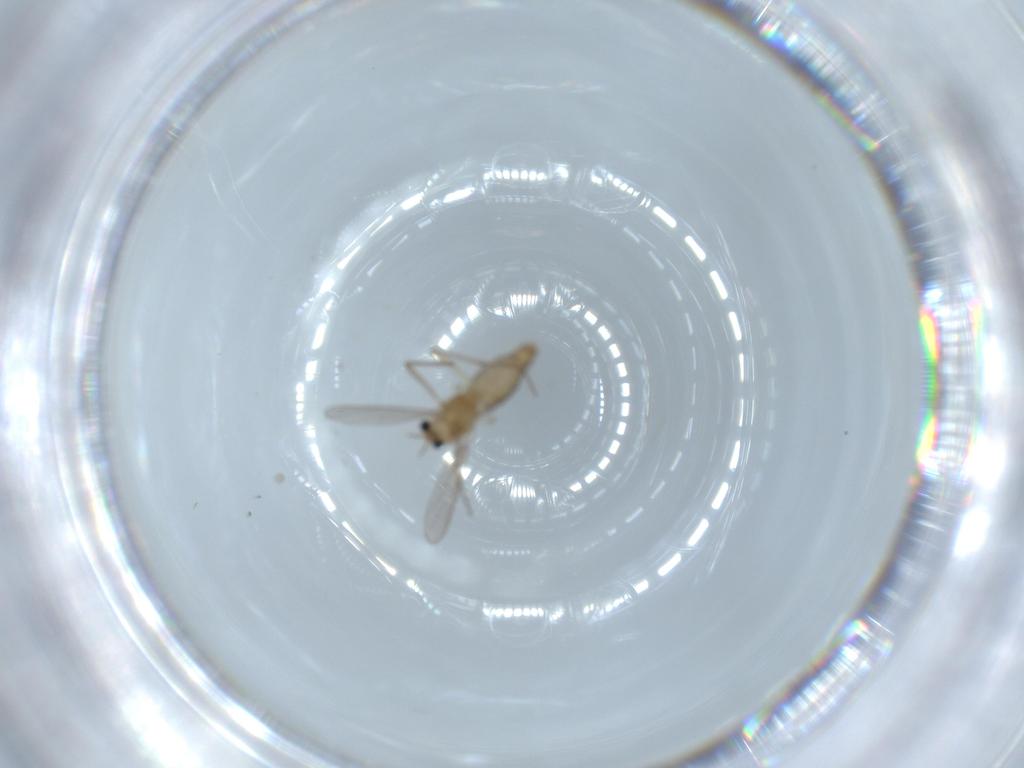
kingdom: Animalia
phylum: Arthropoda
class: Insecta
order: Diptera
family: Chironomidae
